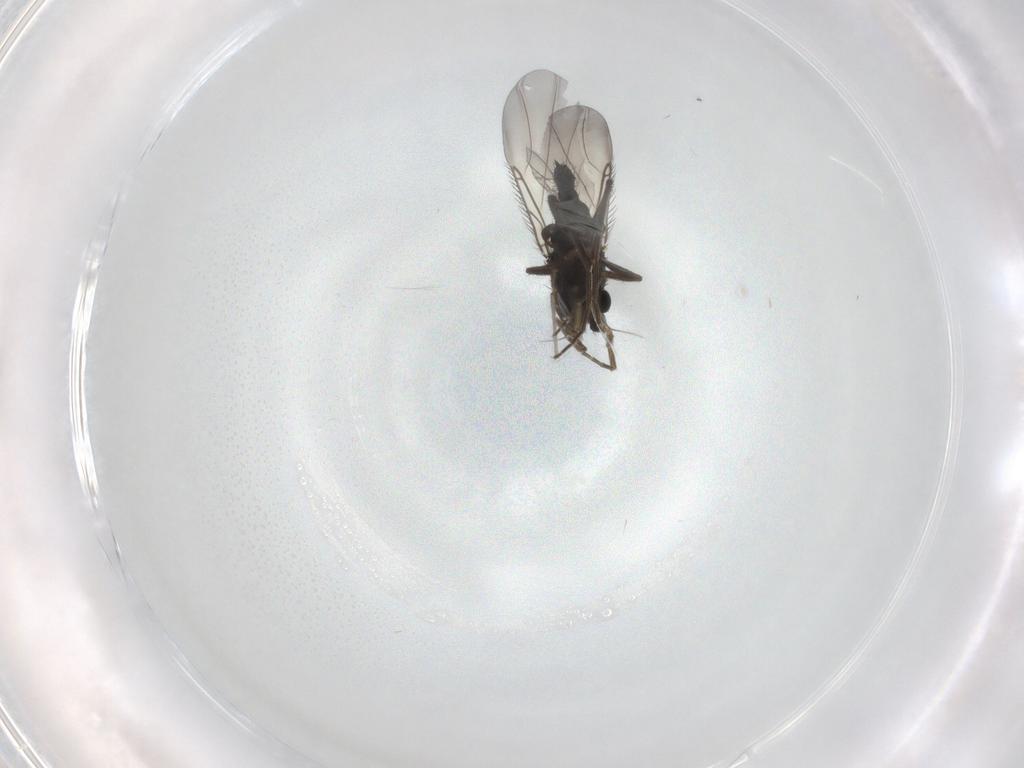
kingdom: Animalia
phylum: Arthropoda
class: Insecta
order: Diptera
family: Phoridae
